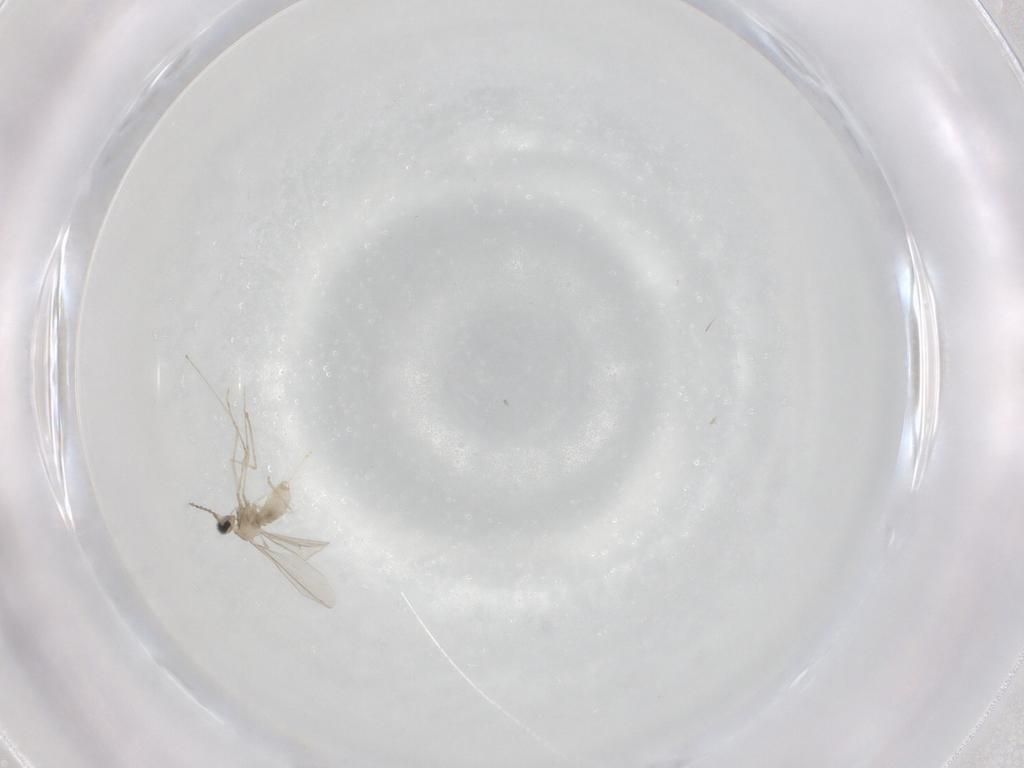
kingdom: Animalia
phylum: Arthropoda
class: Insecta
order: Diptera
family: Cecidomyiidae
